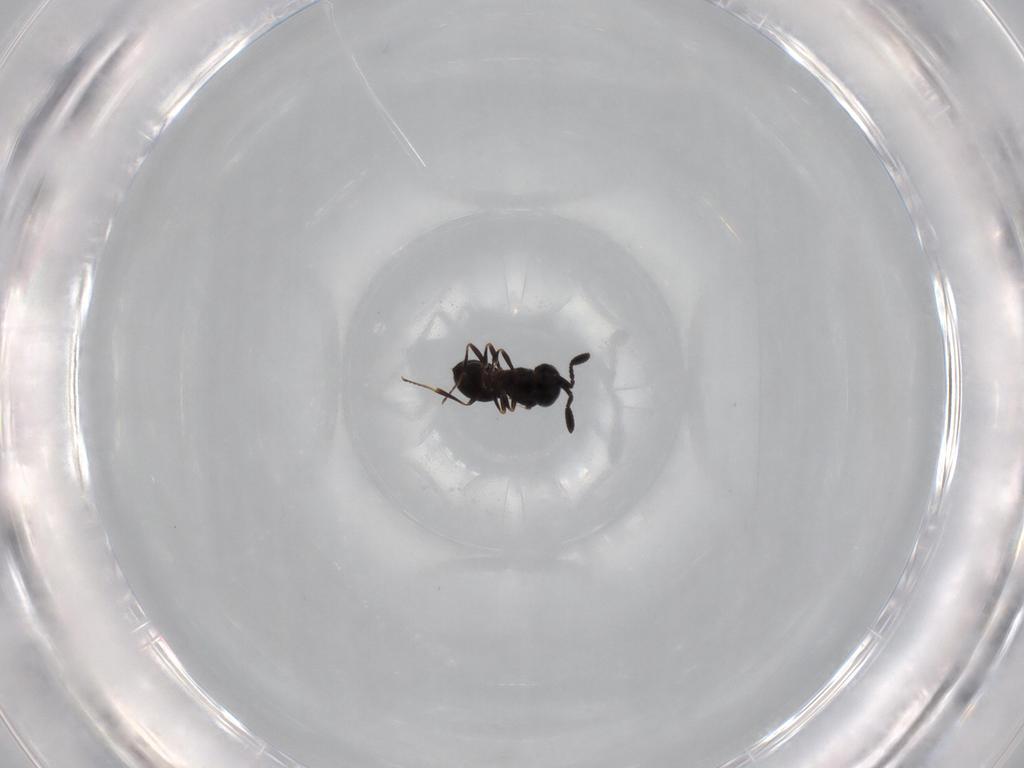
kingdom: Animalia
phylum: Arthropoda
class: Insecta
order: Hymenoptera
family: Scelionidae
